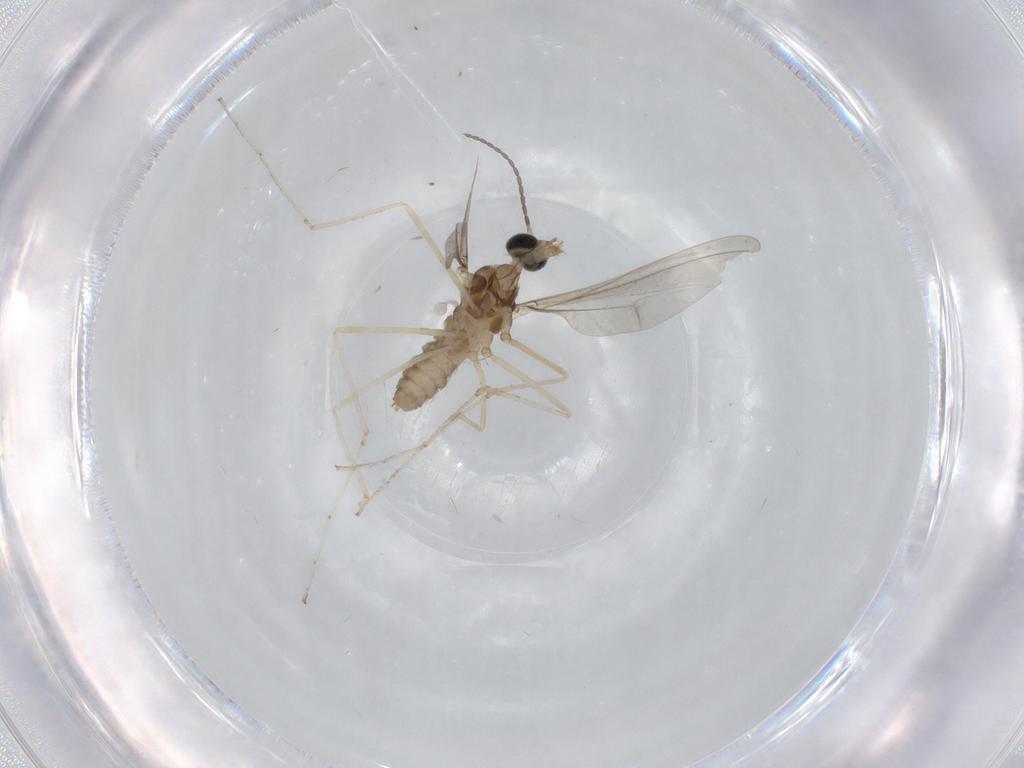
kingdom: Animalia
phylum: Arthropoda
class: Insecta
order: Diptera
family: Cecidomyiidae
